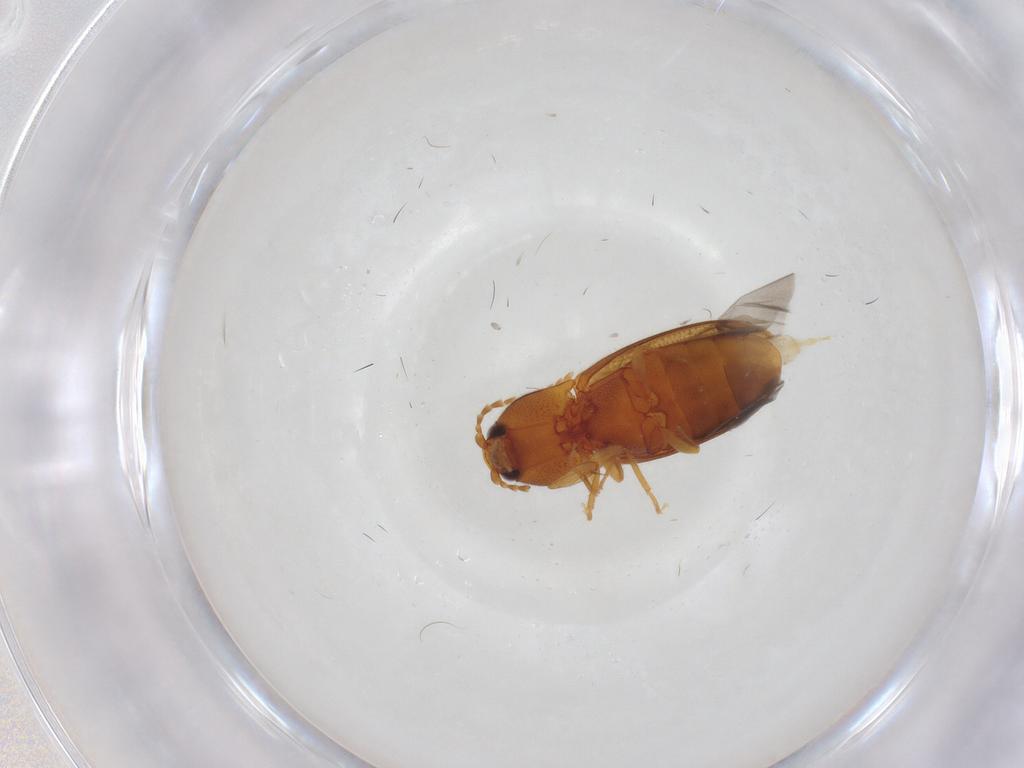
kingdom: Animalia
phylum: Arthropoda
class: Insecta
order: Coleoptera
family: Elateridae
